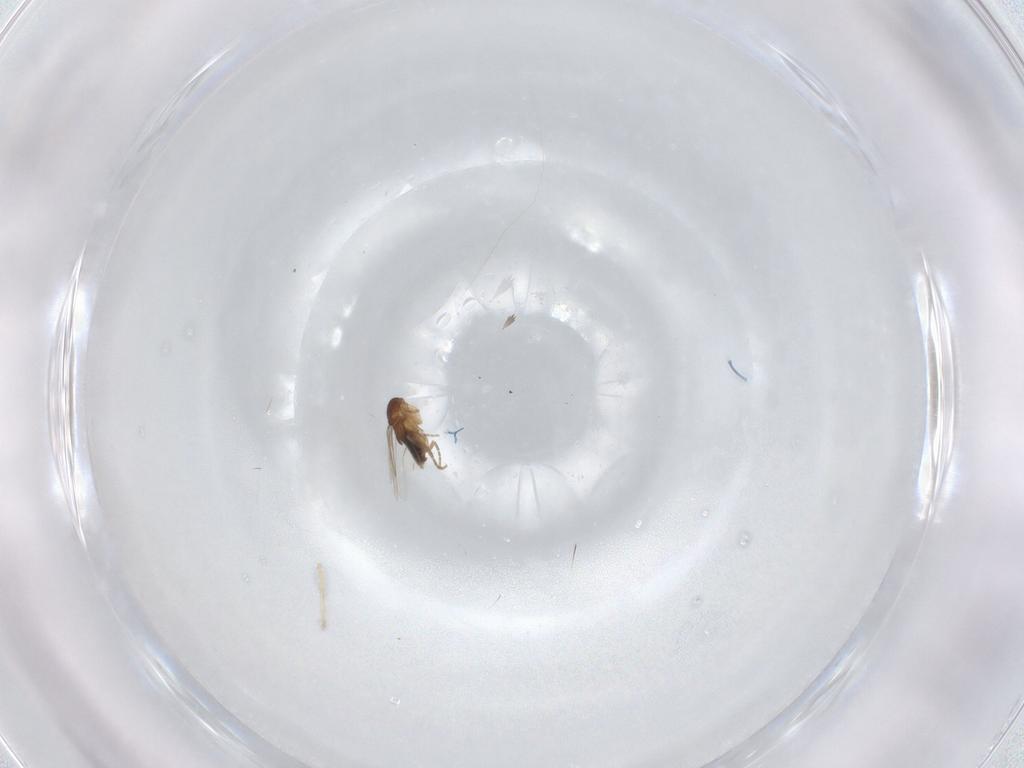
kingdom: Animalia
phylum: Arthropoda
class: Insecta
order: Diptera
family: Phoridae
